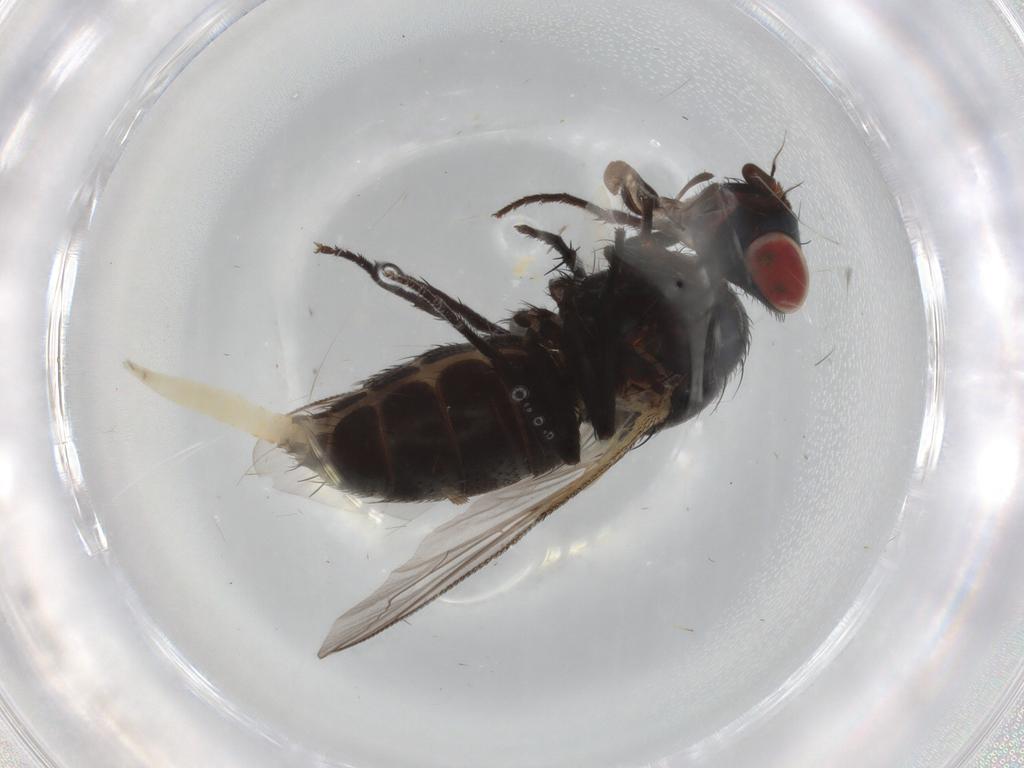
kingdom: Animalia
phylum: Arthropoda
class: Insecta
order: Diptera
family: Sarcophagidae
